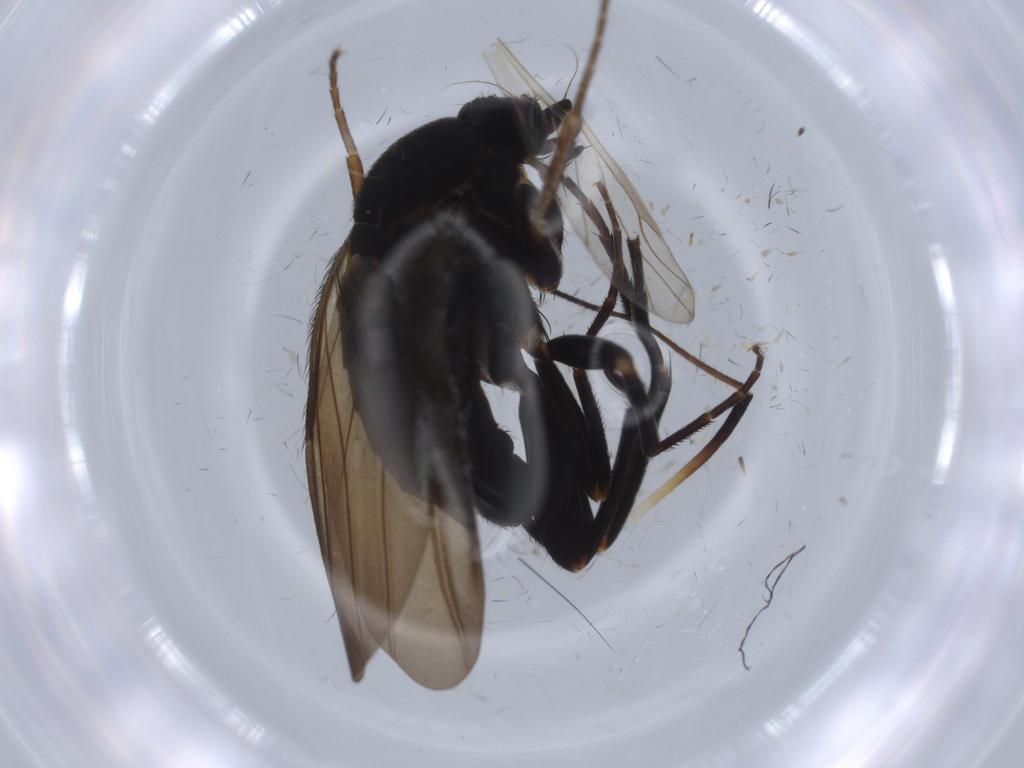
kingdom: Animalia
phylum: Arthropoda
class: Insecta
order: Diptera
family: Phoridae
